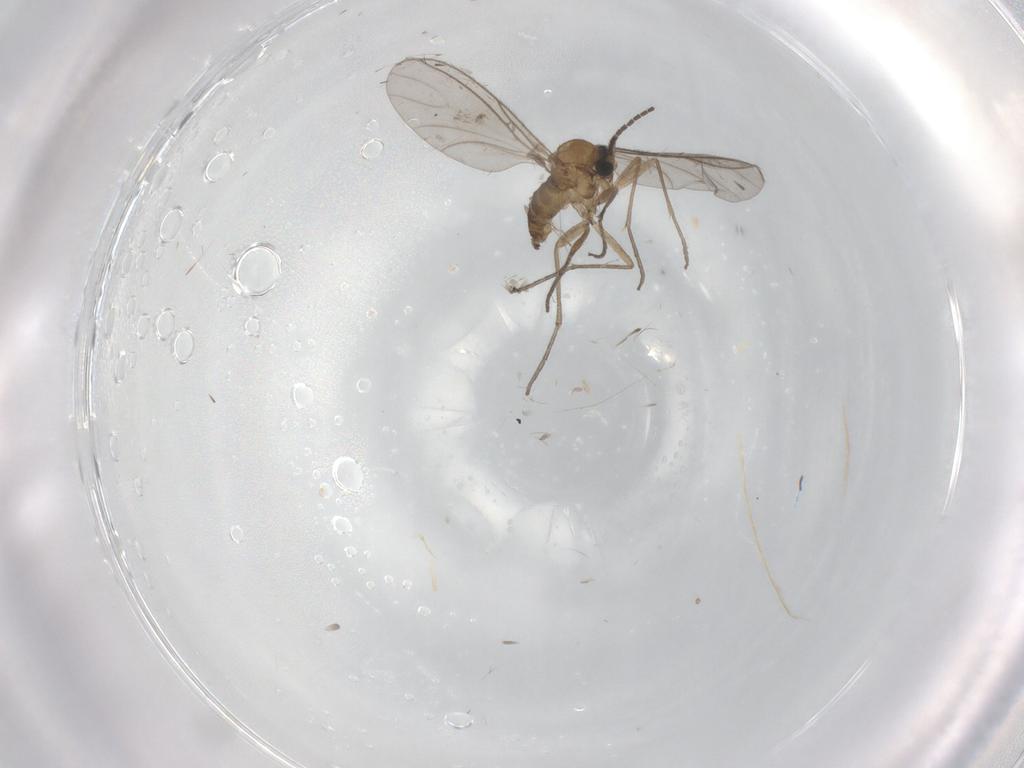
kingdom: Animalia
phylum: Arthropoda
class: Insecta
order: Diptera
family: Sciaridae
